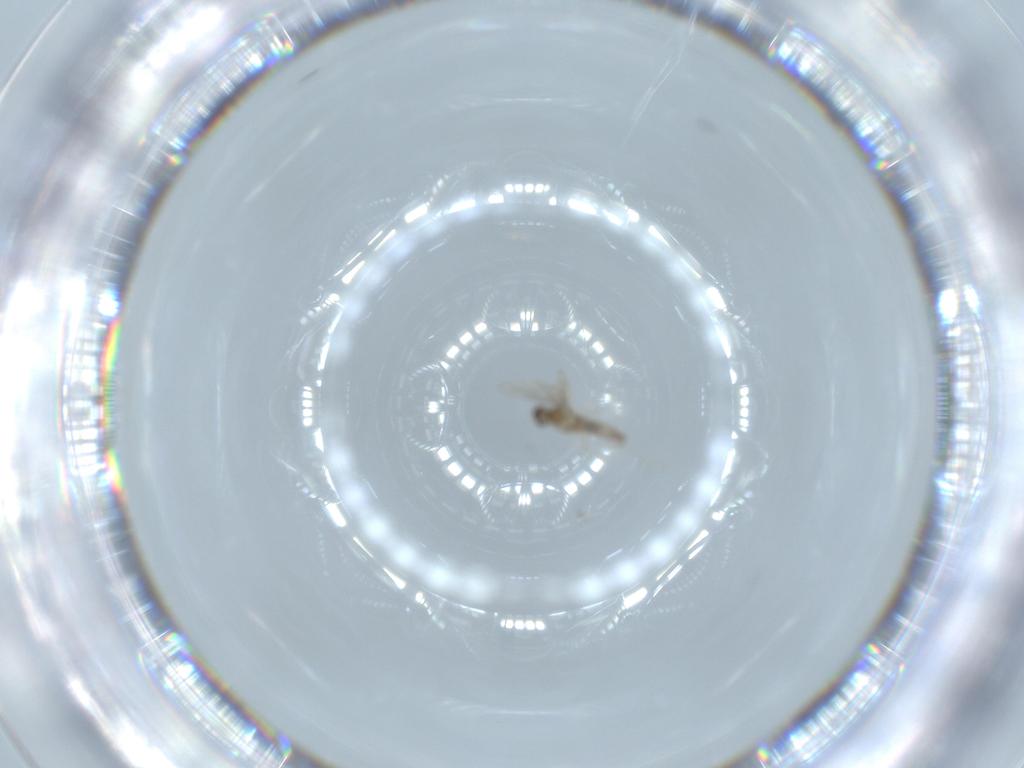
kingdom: Animalia
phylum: Arthropoda
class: Insecta
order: Diptera
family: Cecidomyiidae
